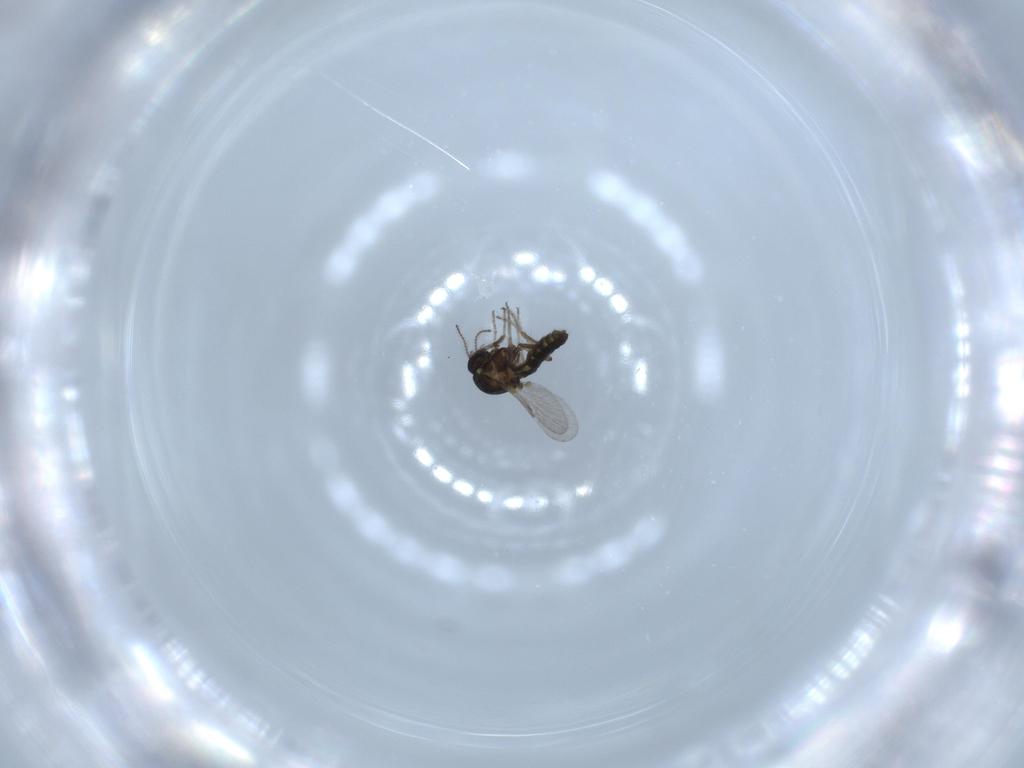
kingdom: Animalia
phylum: Arthropoda
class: Insecta
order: Diptera
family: Ceratopogonidae
